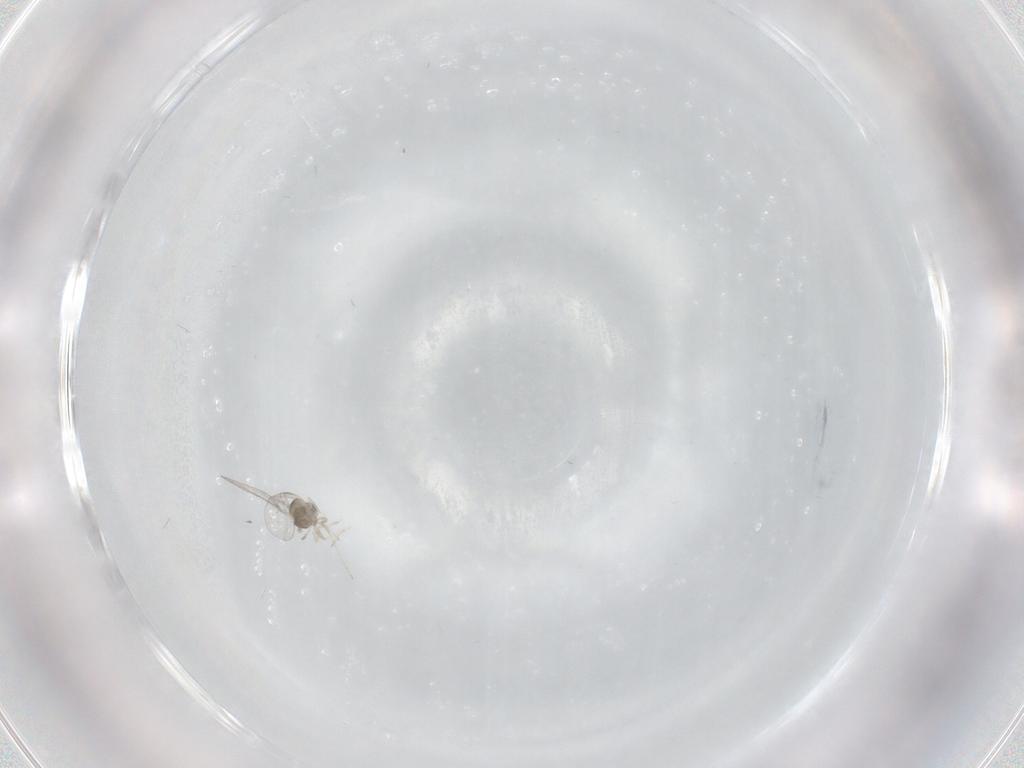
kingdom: Animalia
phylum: Arthropoda
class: Insecta
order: Diptera
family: Cecidomyiidae
